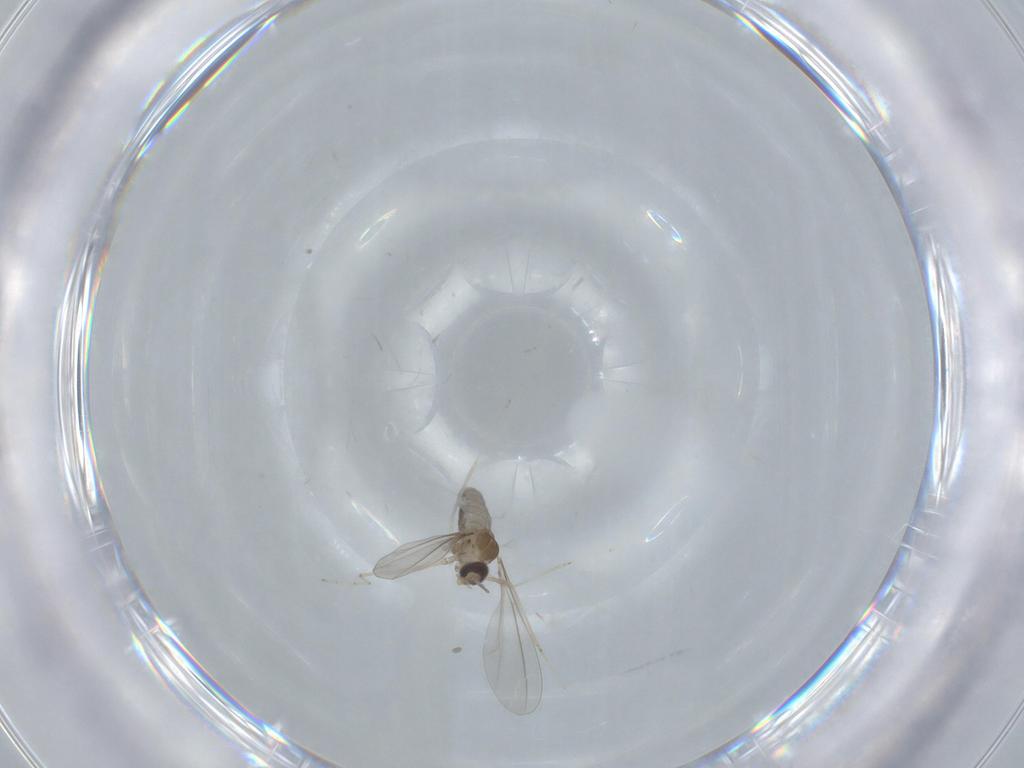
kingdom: Animalia
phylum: Arthropoda
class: Insecta
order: Diptera
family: Cecidomyiidae
